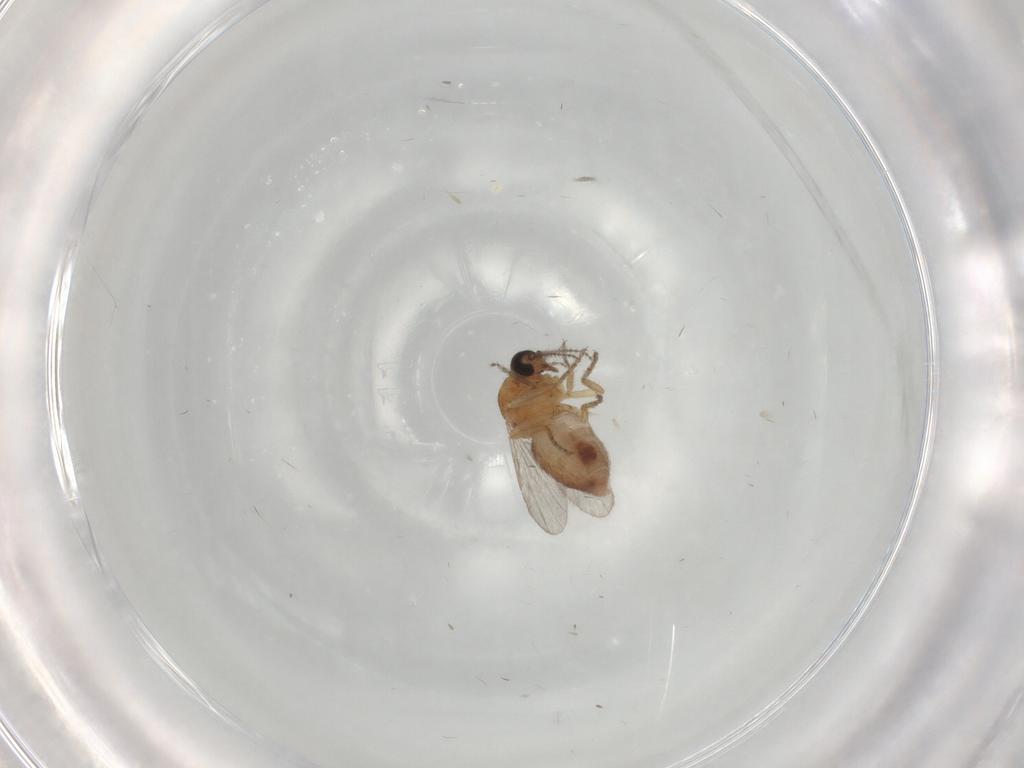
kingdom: Animalia
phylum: Arthropoda
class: Insecta
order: Diptera
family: Ceratopogonidae
